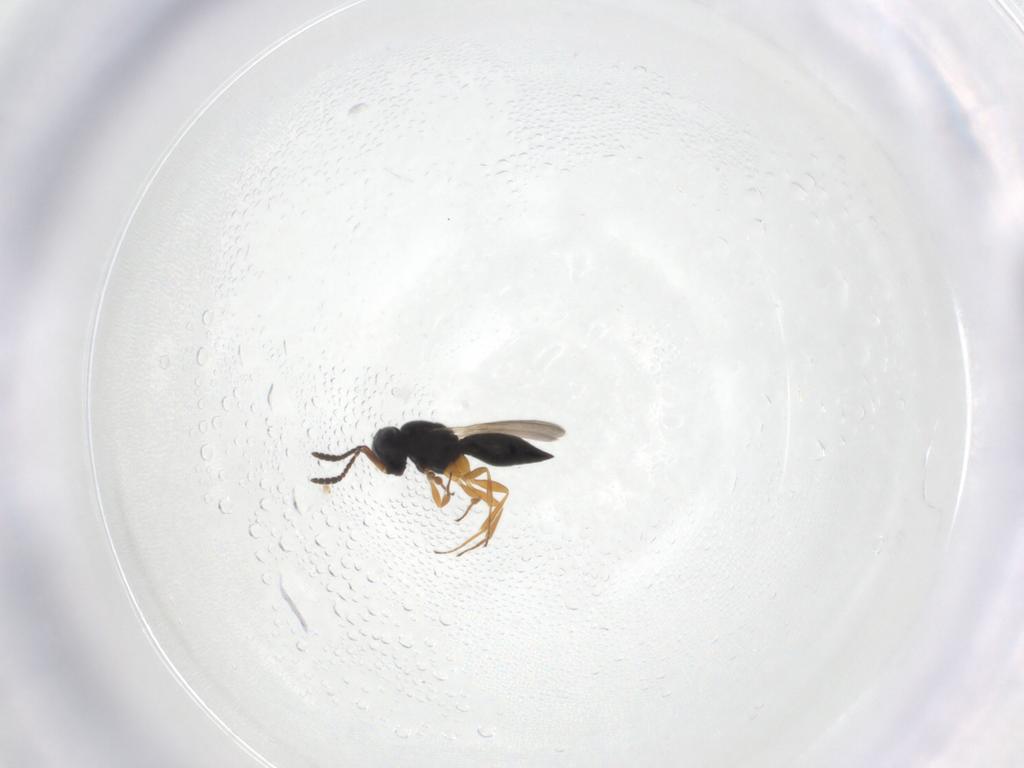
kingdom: Animalia
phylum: Arthropoda
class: Insecta
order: Hymenoptera
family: Scelionidae
